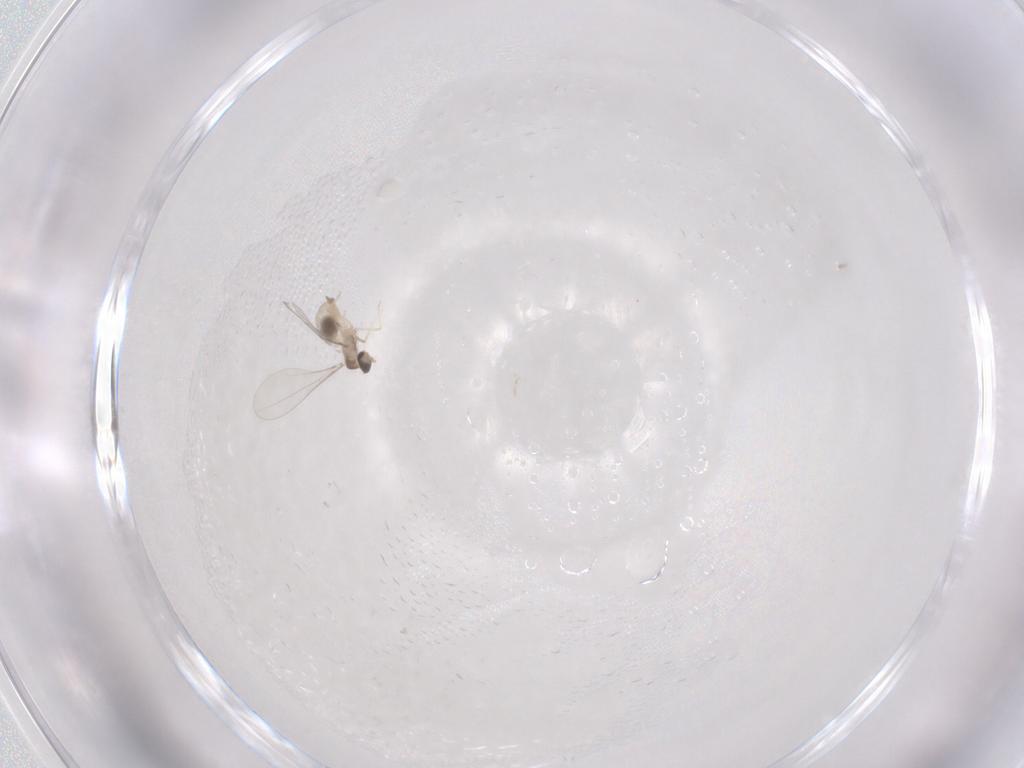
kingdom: Animalia
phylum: Arthropoda
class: Insecta
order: Diptera
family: Cecidomyiidae
